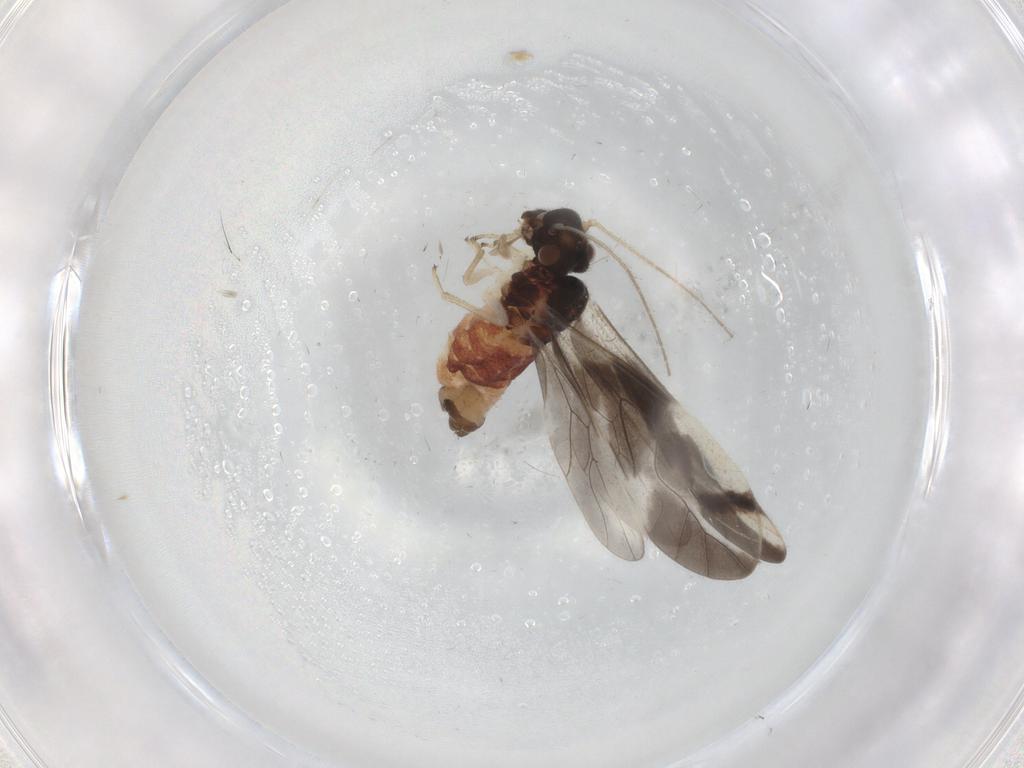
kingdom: Animalia
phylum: Arthropoda
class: Insecta
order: Psocodea
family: Caeciliusidae
